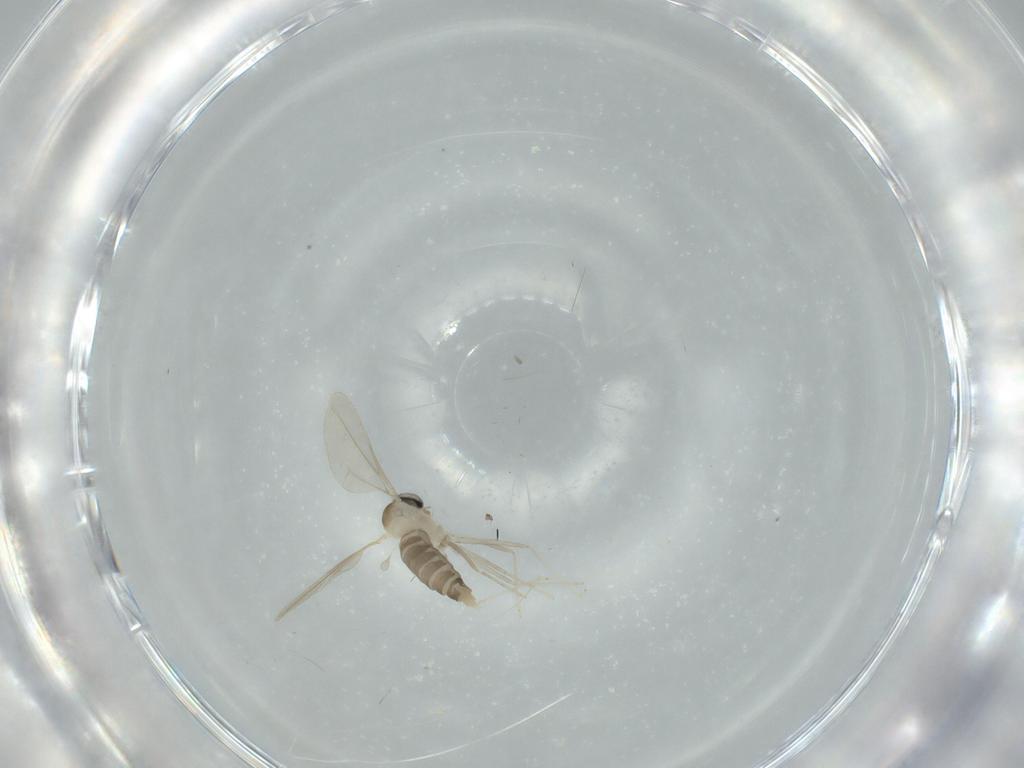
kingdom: Animalia
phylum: Arthropoda
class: Insecta
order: Diptera
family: Cecidomyiidae
